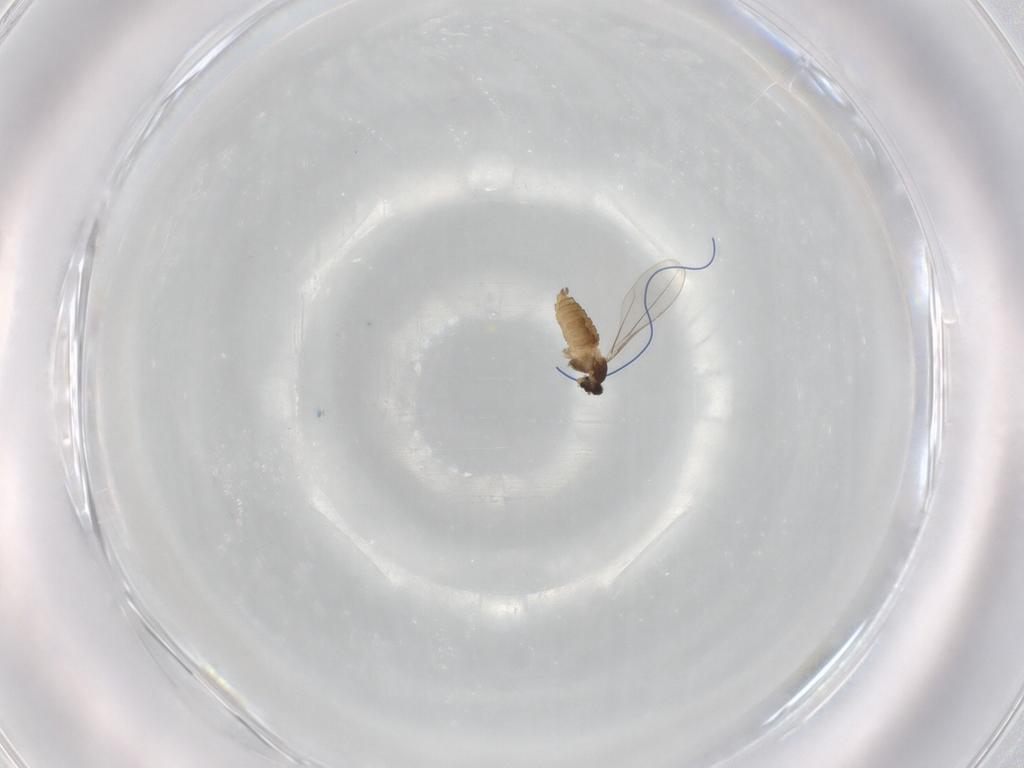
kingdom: Animalia
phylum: Arthropoda
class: Insecta
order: Diptera
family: Cecidomyiidae
